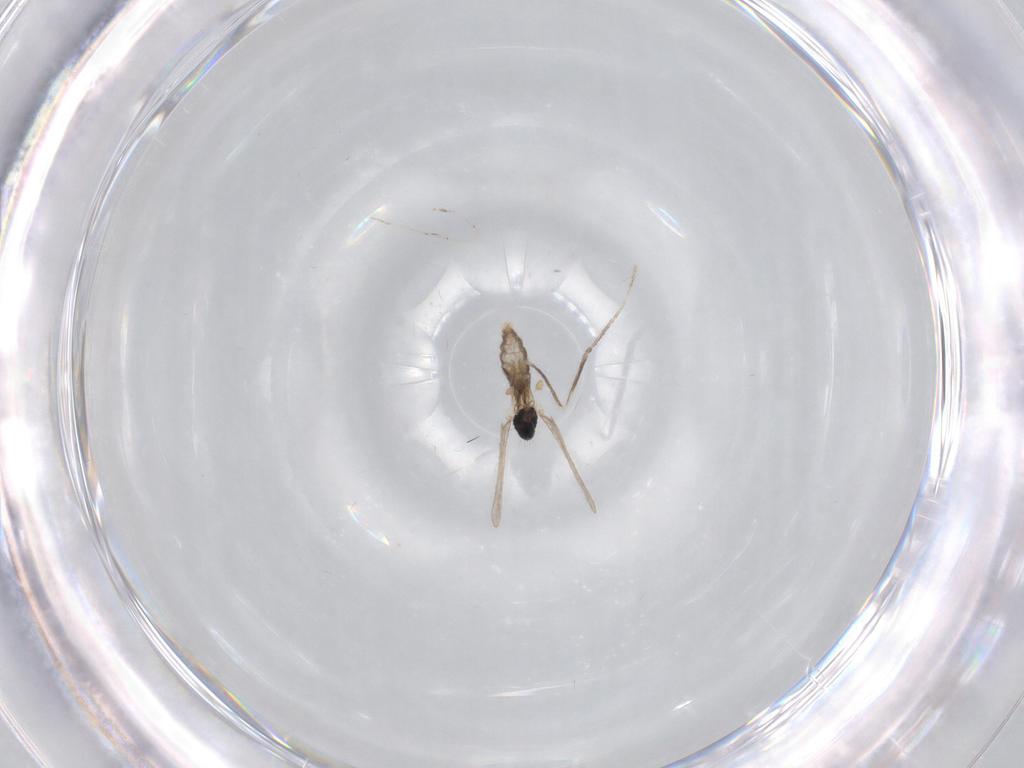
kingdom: Animalia
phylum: Arthropoda
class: Insecta
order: Diptera
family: Cecidomyiidae
